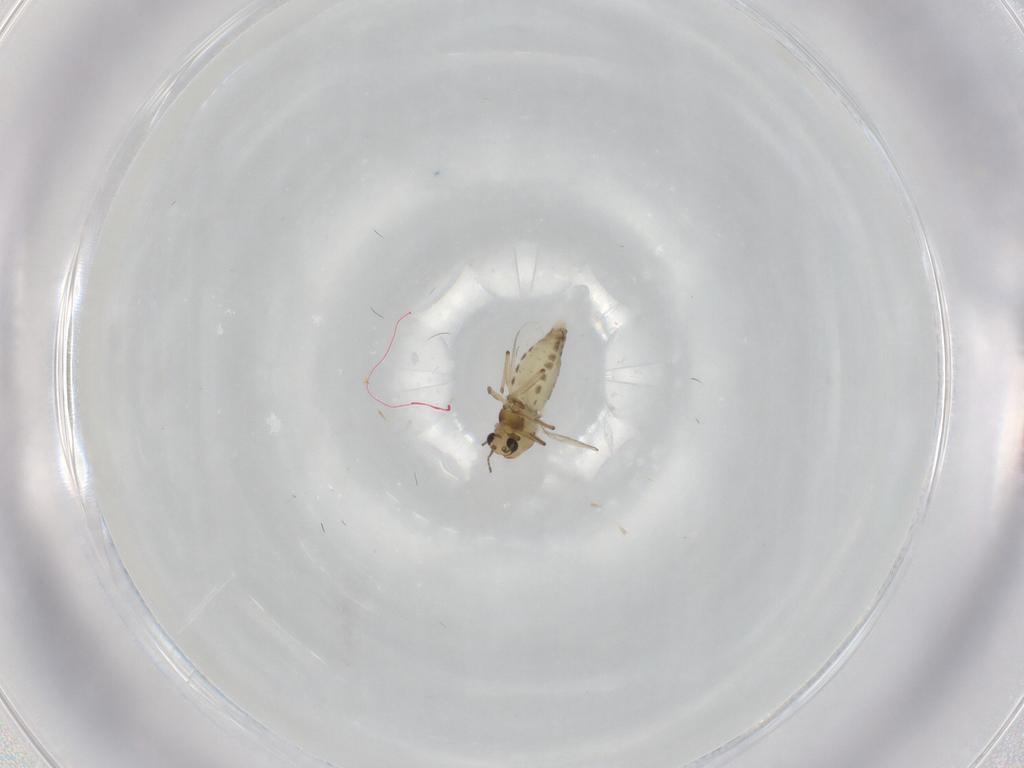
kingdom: Animalia
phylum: Arthropoda
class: Insecta
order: Diptera
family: Chironomidae
